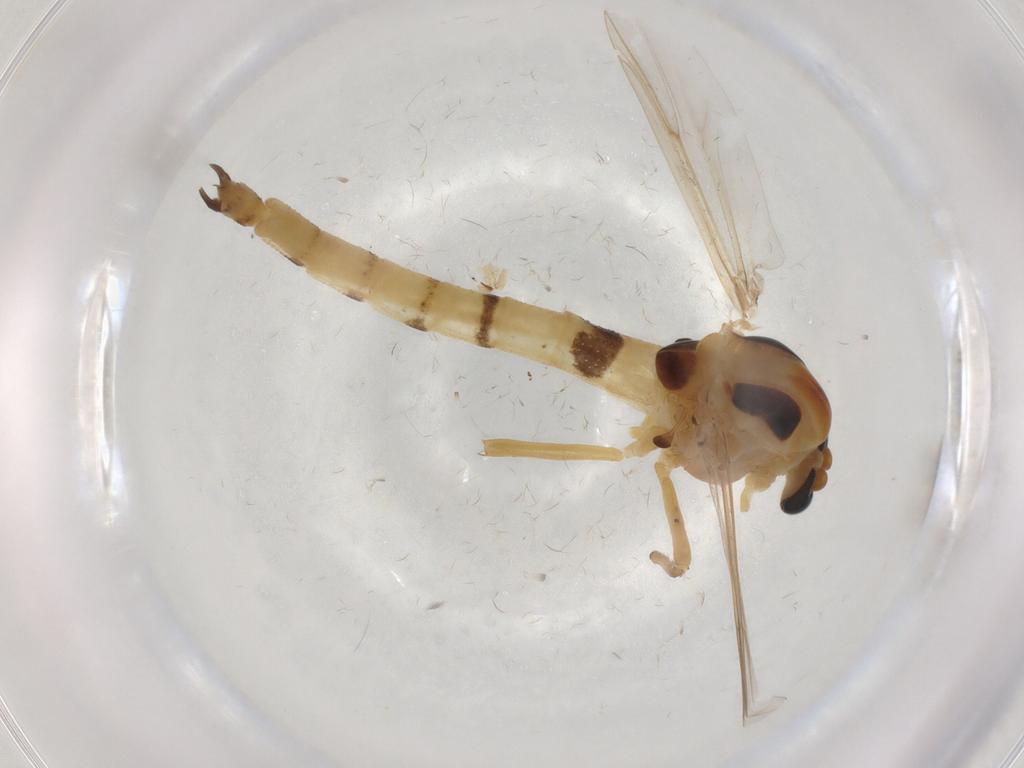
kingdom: Animalia
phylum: Arthropoda
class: Insecta
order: Diptera
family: Chironomidae
